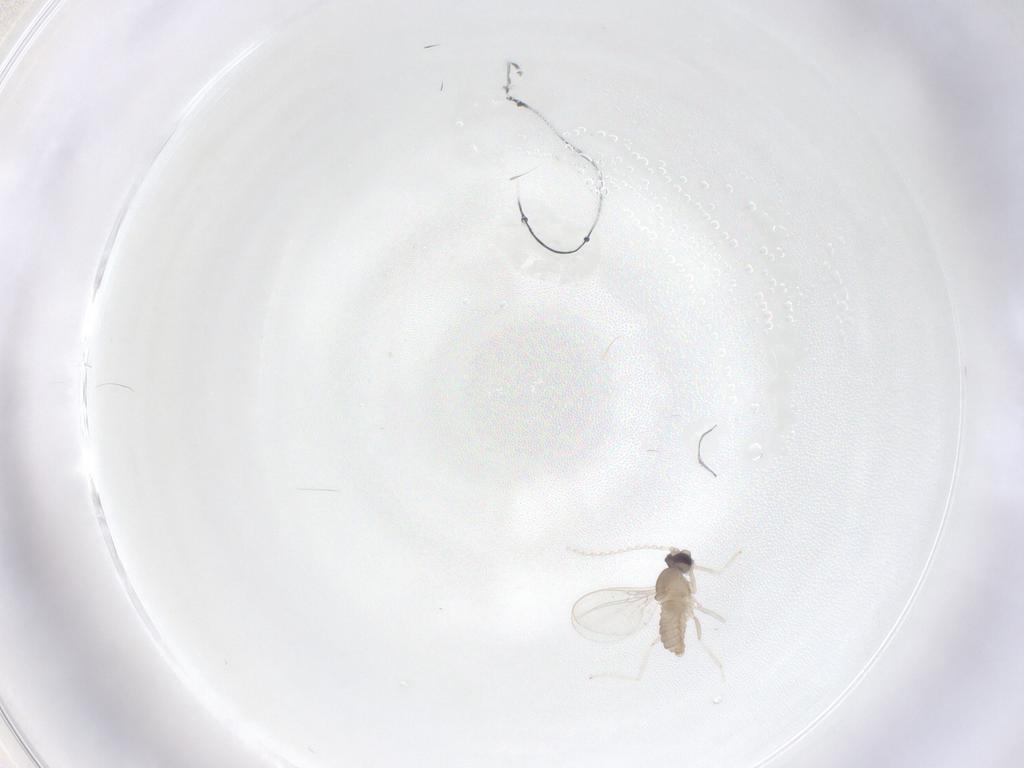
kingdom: Animalia
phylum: Arthropoda
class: Insecta
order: Diptera
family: Cecidomyiidae
